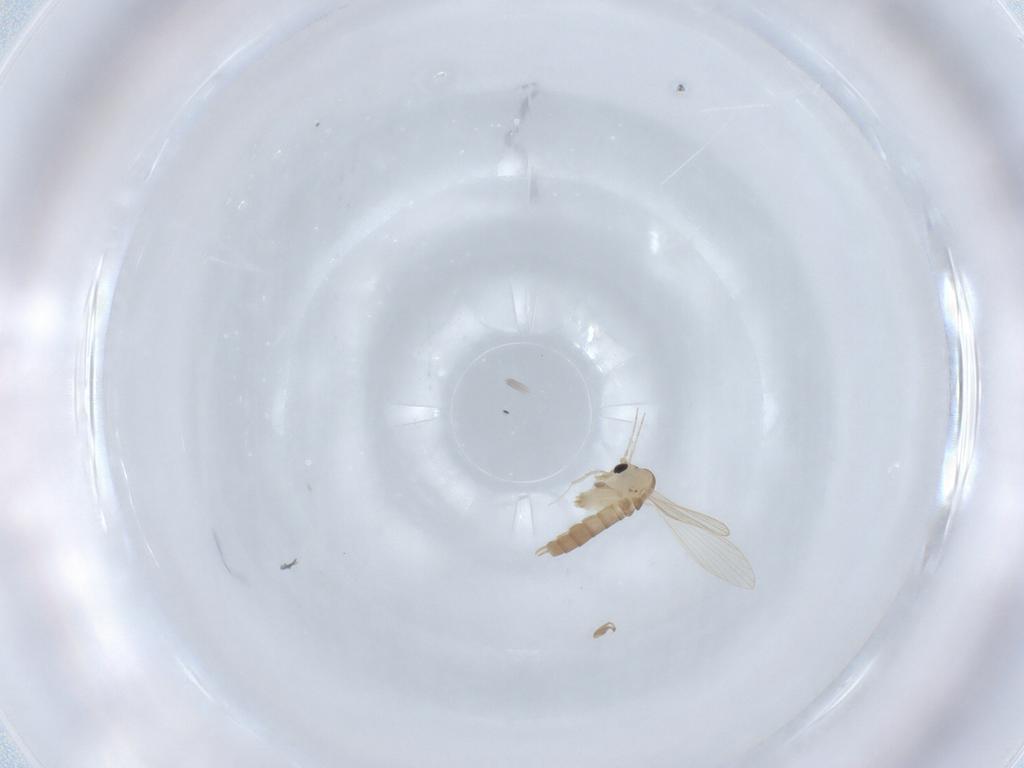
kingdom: Animalia
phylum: Arthropoda
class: Insecta
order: Diptera
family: Psychodidae
